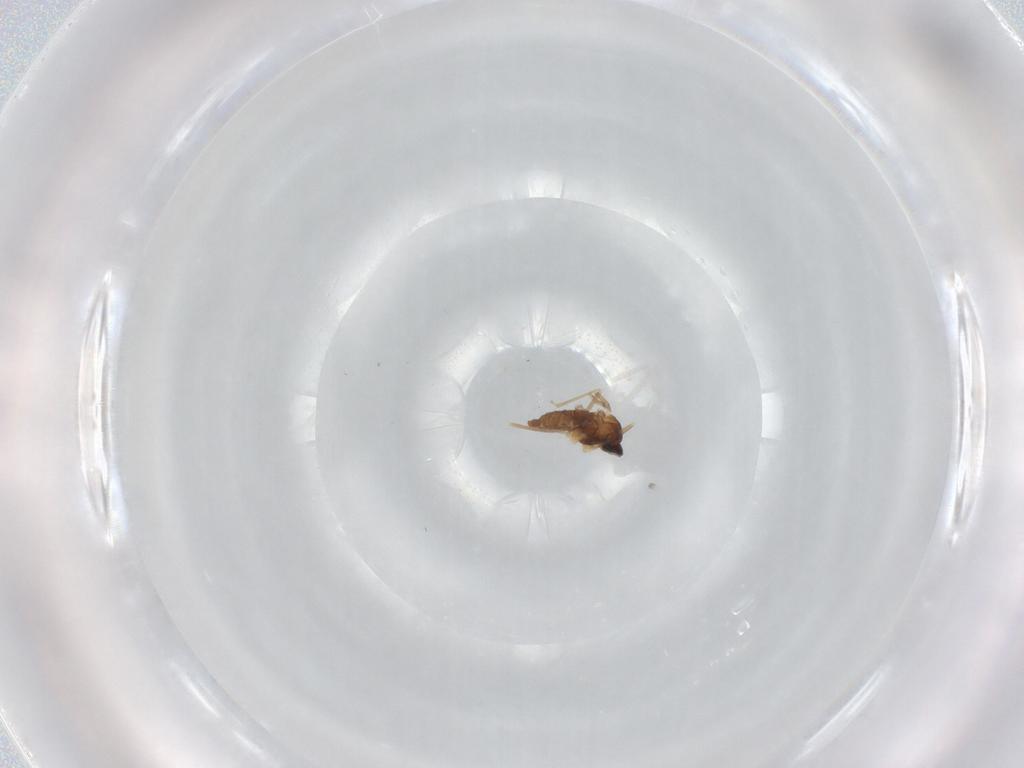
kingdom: Animalia
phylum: Arthropoda
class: Insecta
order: Diptera
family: Cecidomyiidae
